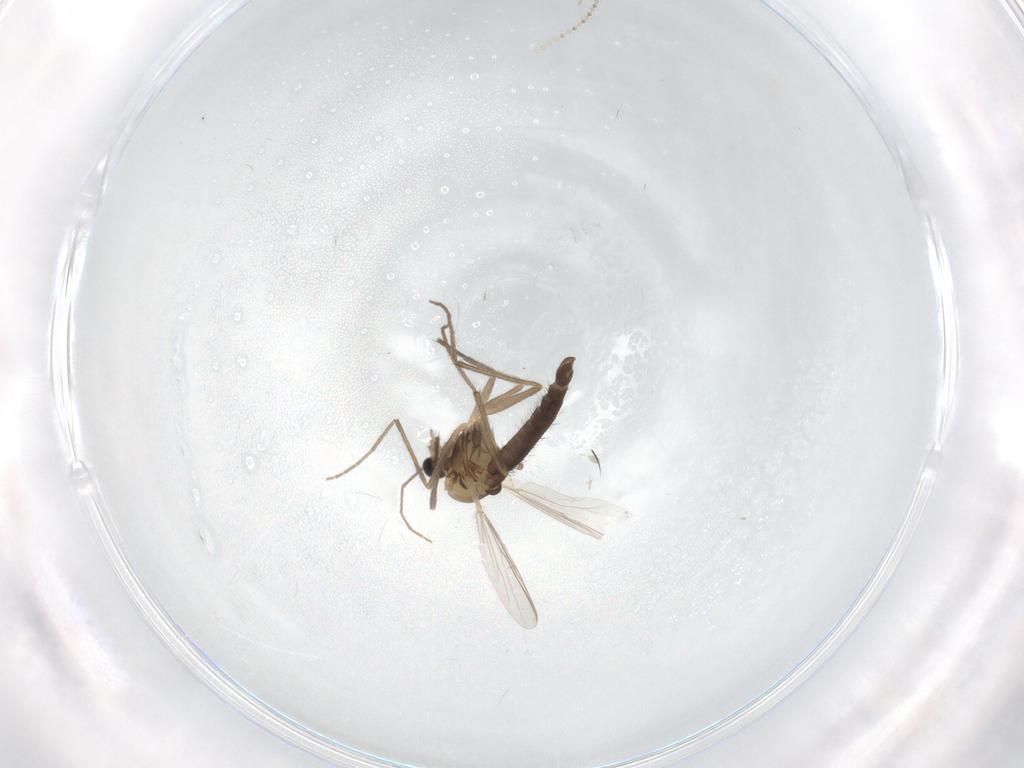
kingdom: Animalia
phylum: Arthropoda
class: Insecta
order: Diptera
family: Chironomidae
